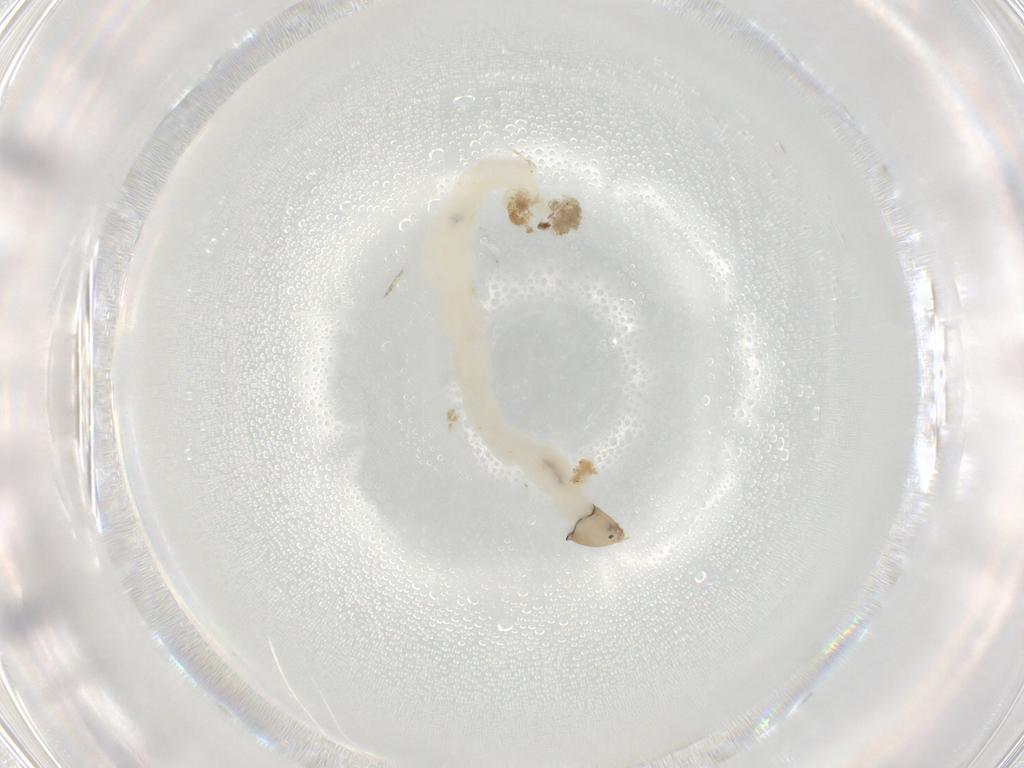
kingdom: Animalia
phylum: Arthropoda
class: Insecta
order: Diptera
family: Chironomidae
